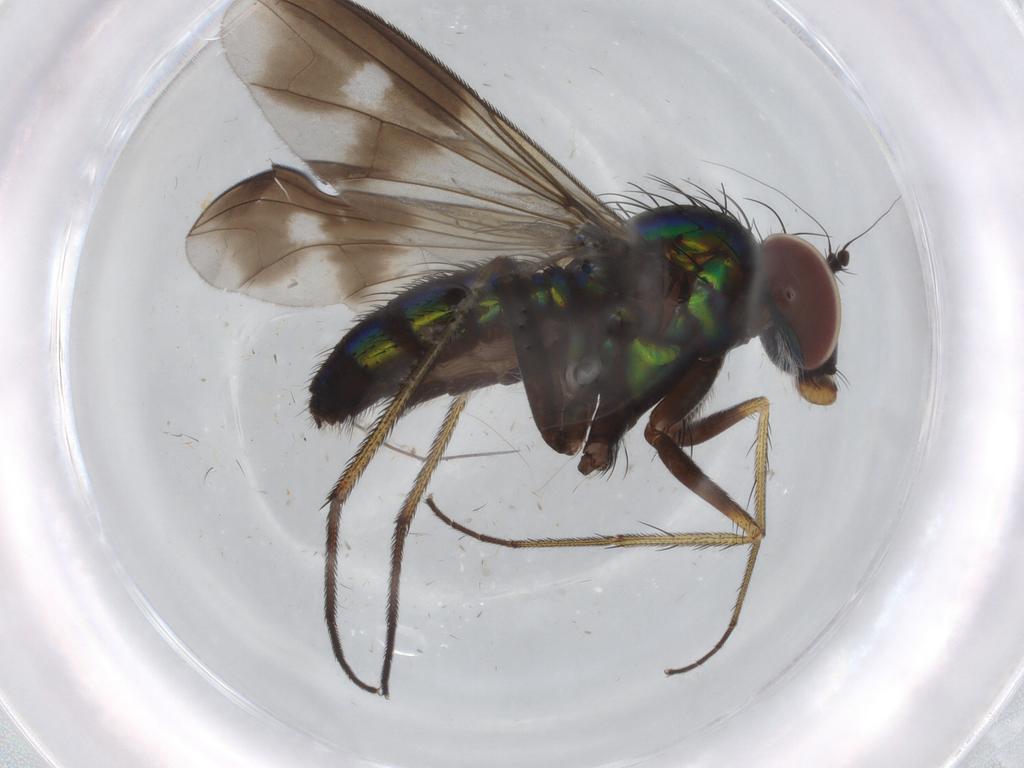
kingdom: Animalia
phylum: Arthropoda
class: Insecta
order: Diptera
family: Dolichopodidae
